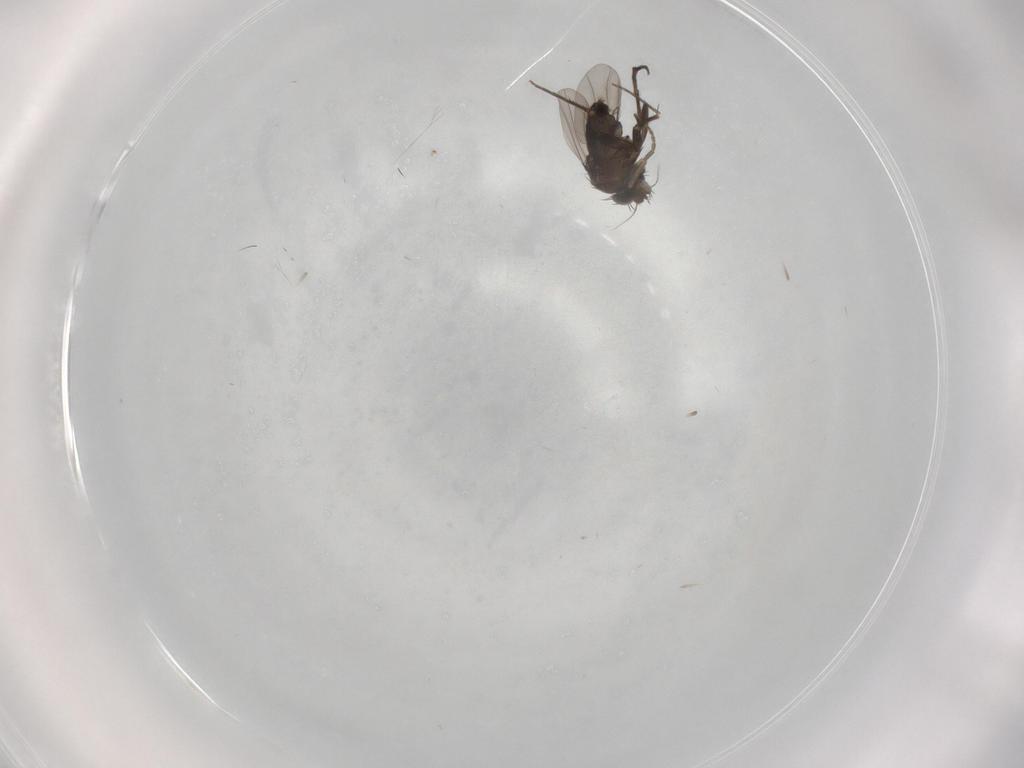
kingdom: Animalia
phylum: Arthropoda
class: Insecta
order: Diptera
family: Phoridae
